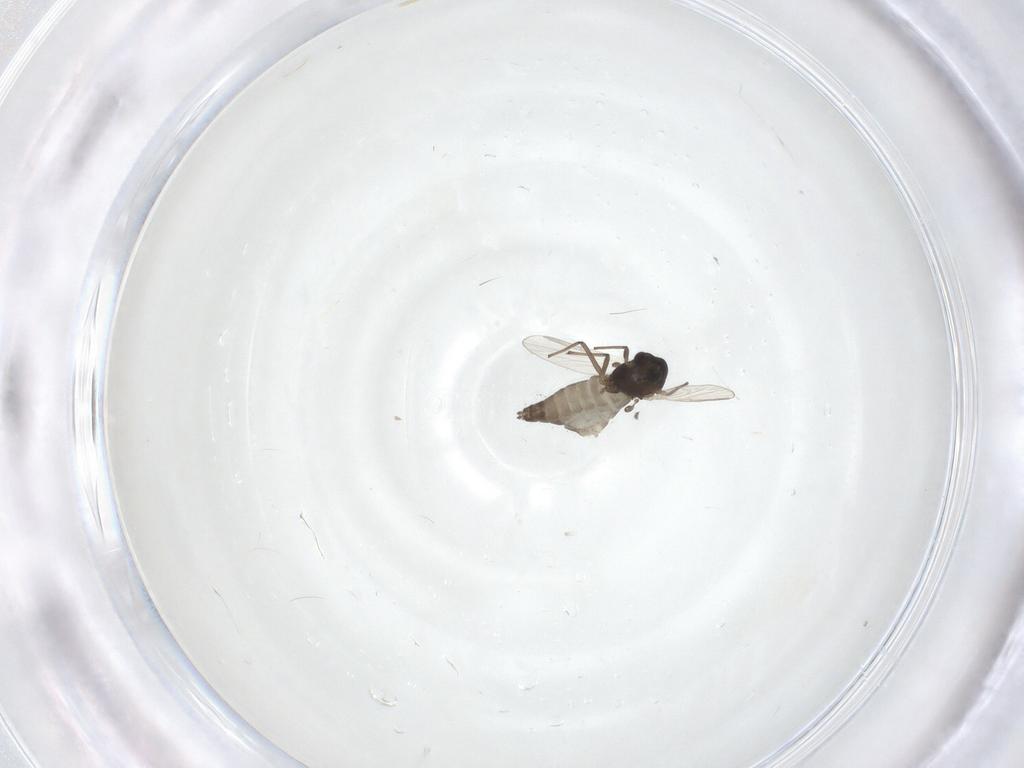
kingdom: Animalia
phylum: Arthropoda
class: Insecta
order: Diptera
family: Chironomidae
